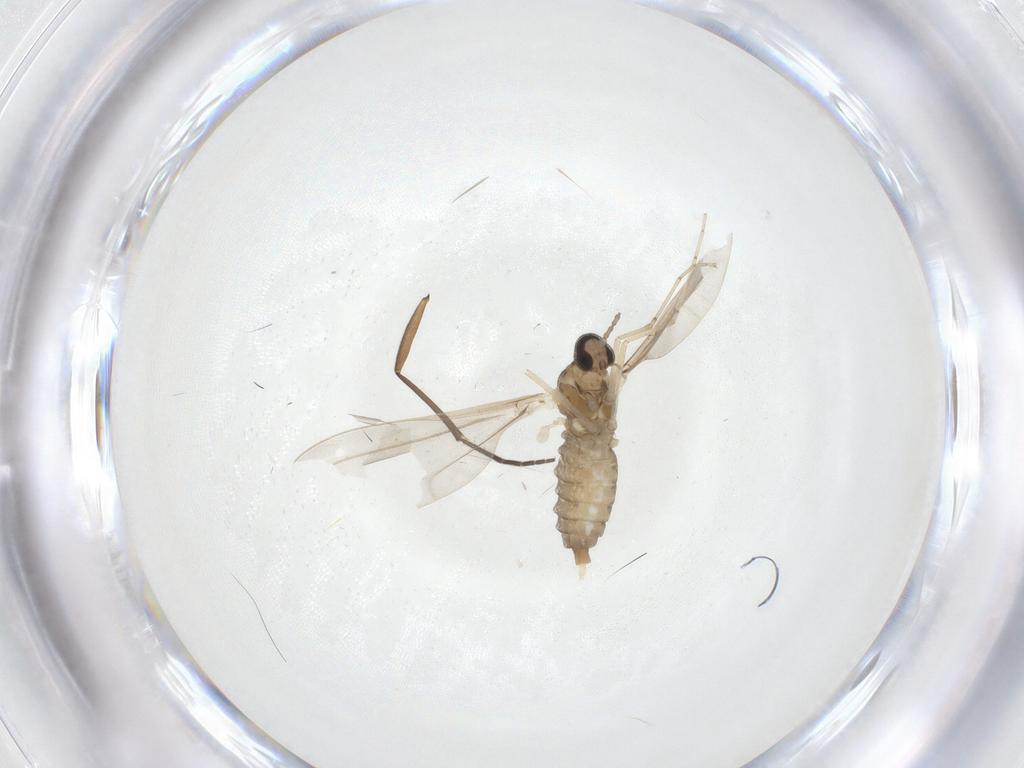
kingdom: Animalia
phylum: Arthropoda
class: Insecta
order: Diptera
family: Cecidomyiidae
